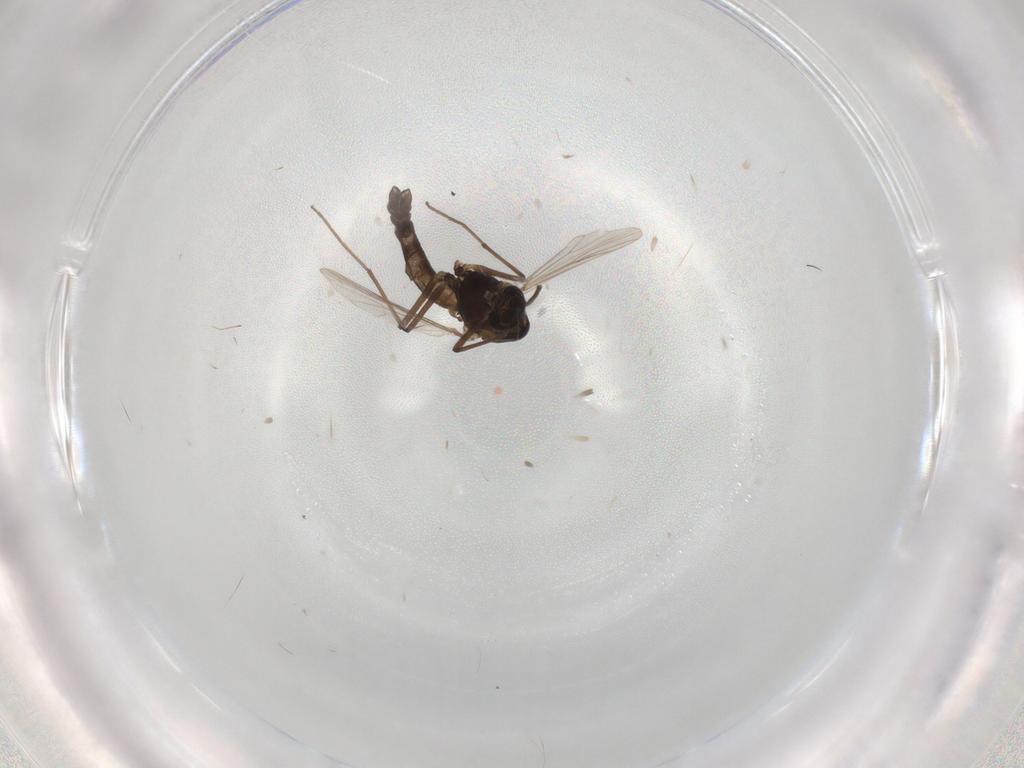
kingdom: Animalia
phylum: Arthropoda
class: Insecta
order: Diptera
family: Chironomidae
